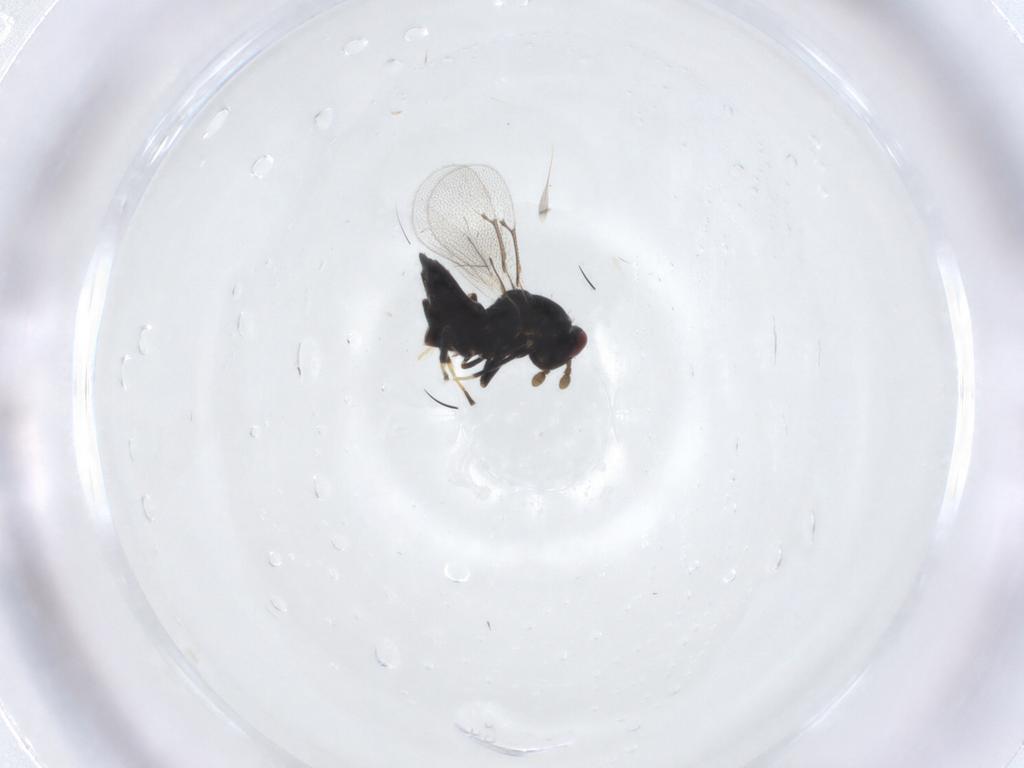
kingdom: Animalia
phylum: Arthropoda
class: Insecta
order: Hymenoptera
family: Eulophidae
